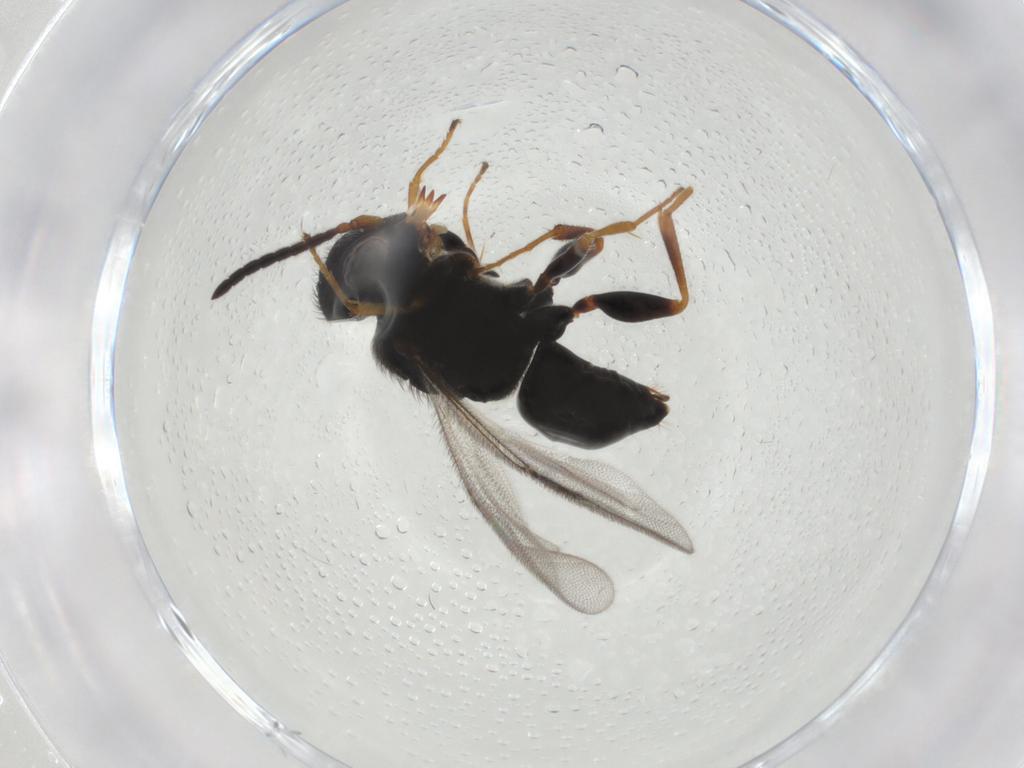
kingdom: Animalia
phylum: Arthropoda
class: Insecta
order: Hymenoptera
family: Dryinidae
